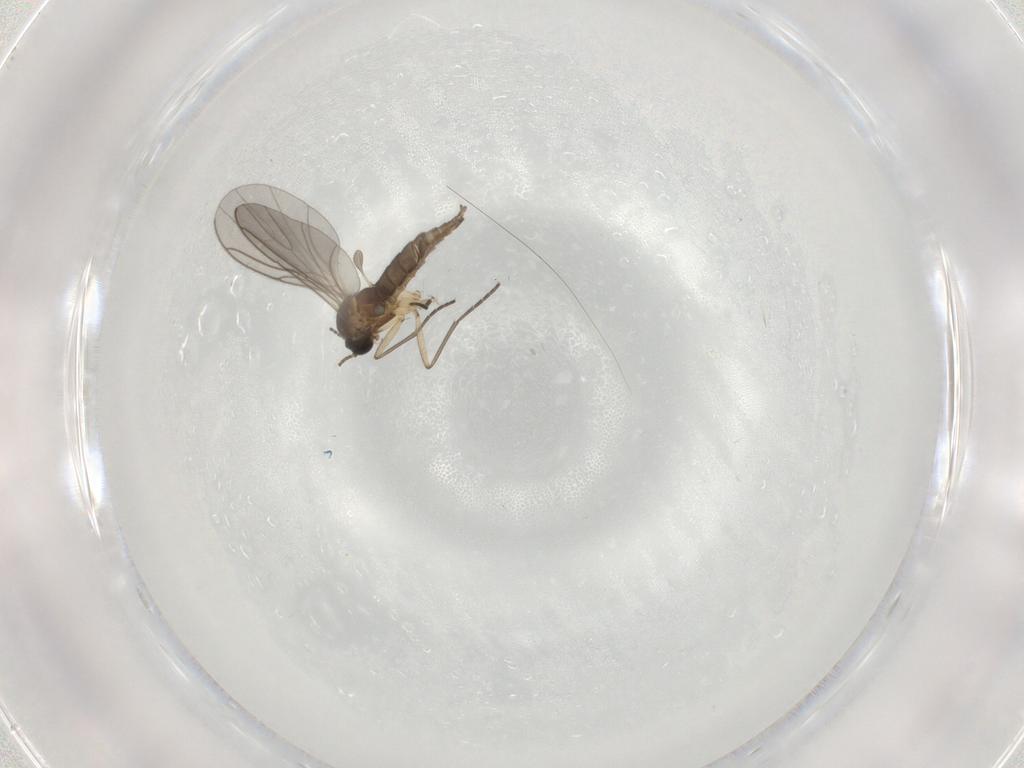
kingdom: Animalia
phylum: Arthropoda
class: Insecta
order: Diptera
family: Sciaridae
